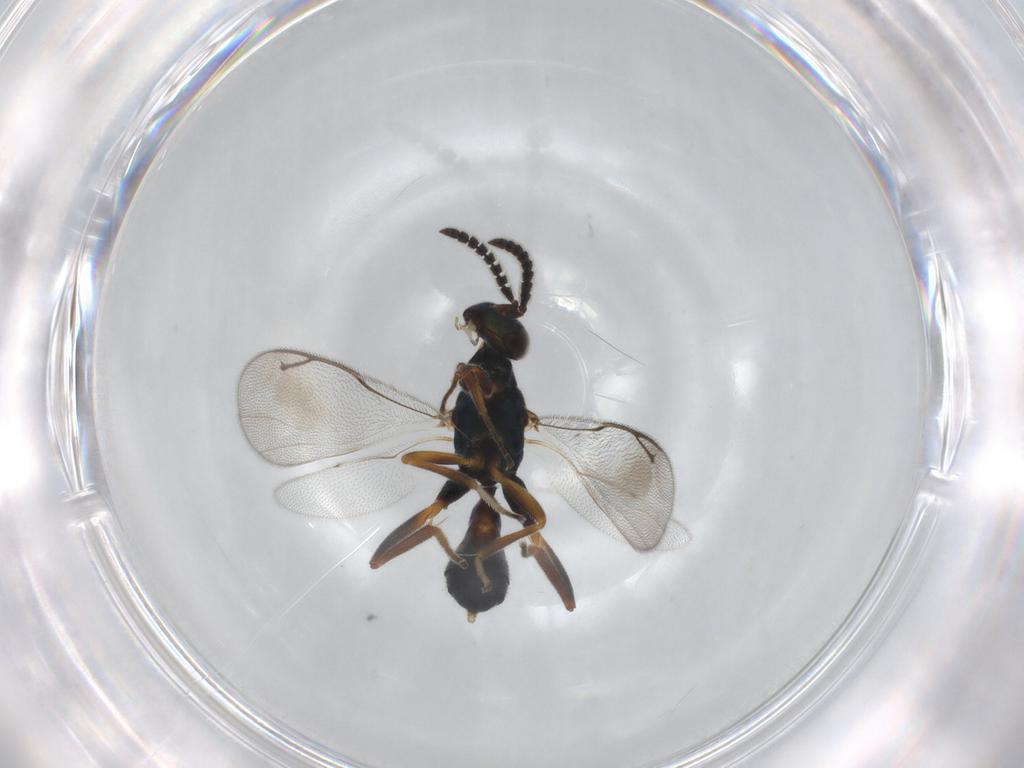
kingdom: Animalia
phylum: Arthropoda
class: Insecta
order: Hymenoptera
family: Cleonyminae
